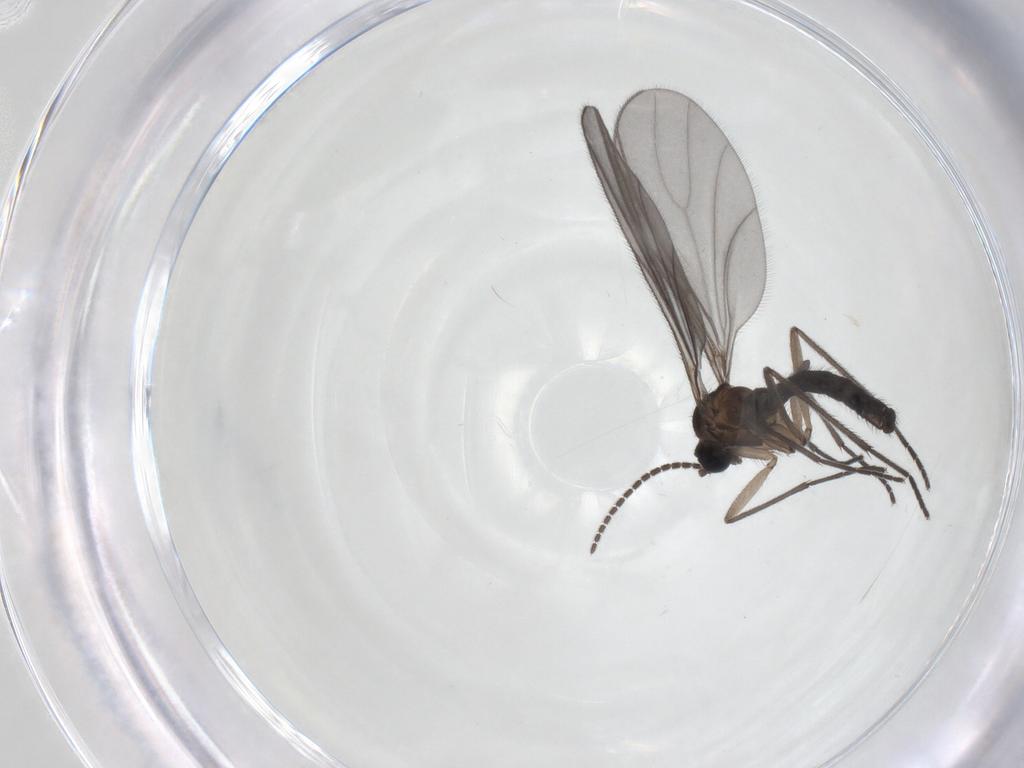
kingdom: Animalia
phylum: Arthropoda
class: Insecta
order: Diptera
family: Sciaridae
